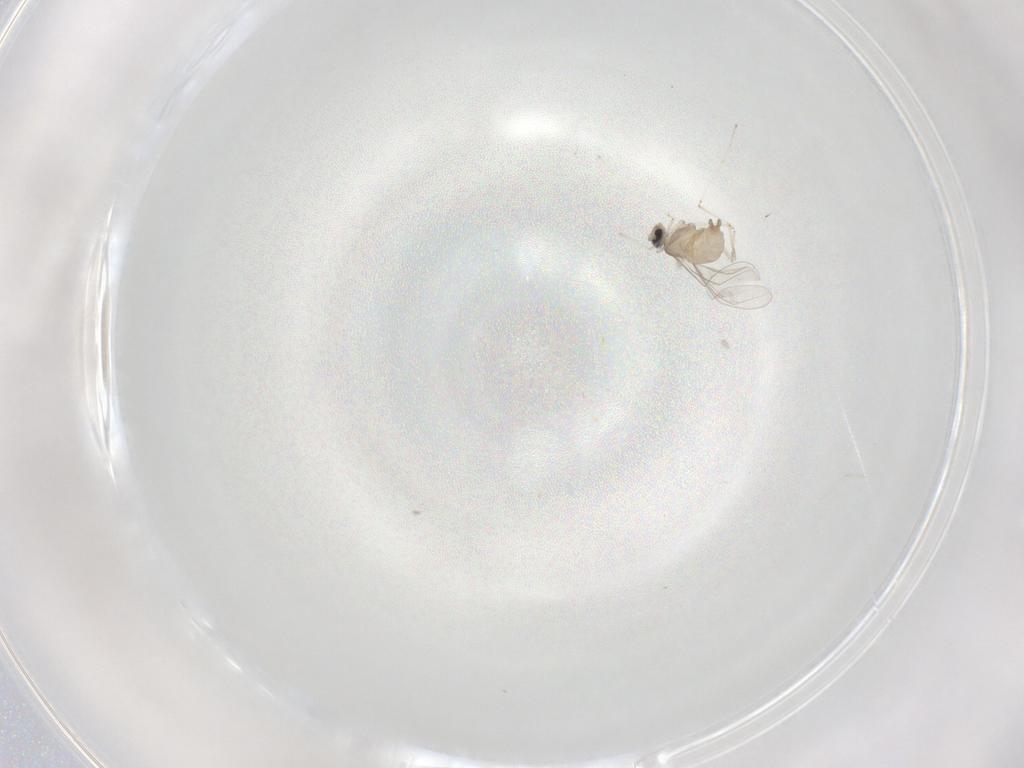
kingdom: Animalia
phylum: Arthropoda
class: Insecta
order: Diptera
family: Cecidomyiidae
